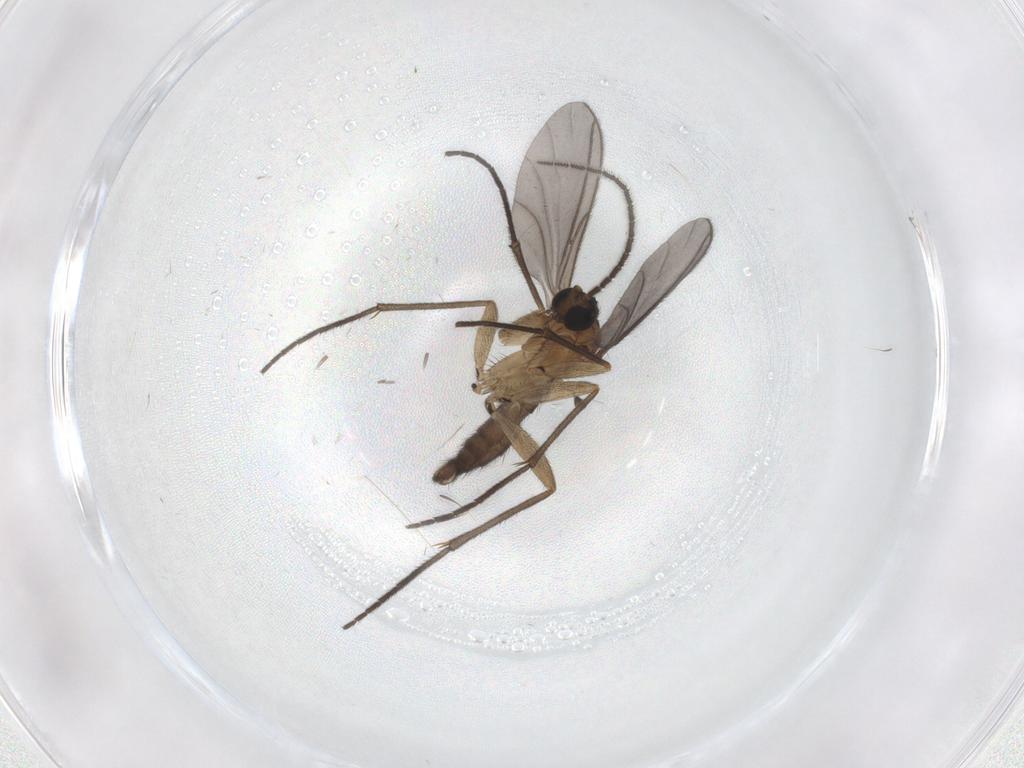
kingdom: Animalia
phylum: Arthropoda
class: Insecta
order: Diptera
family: Sciaridae
